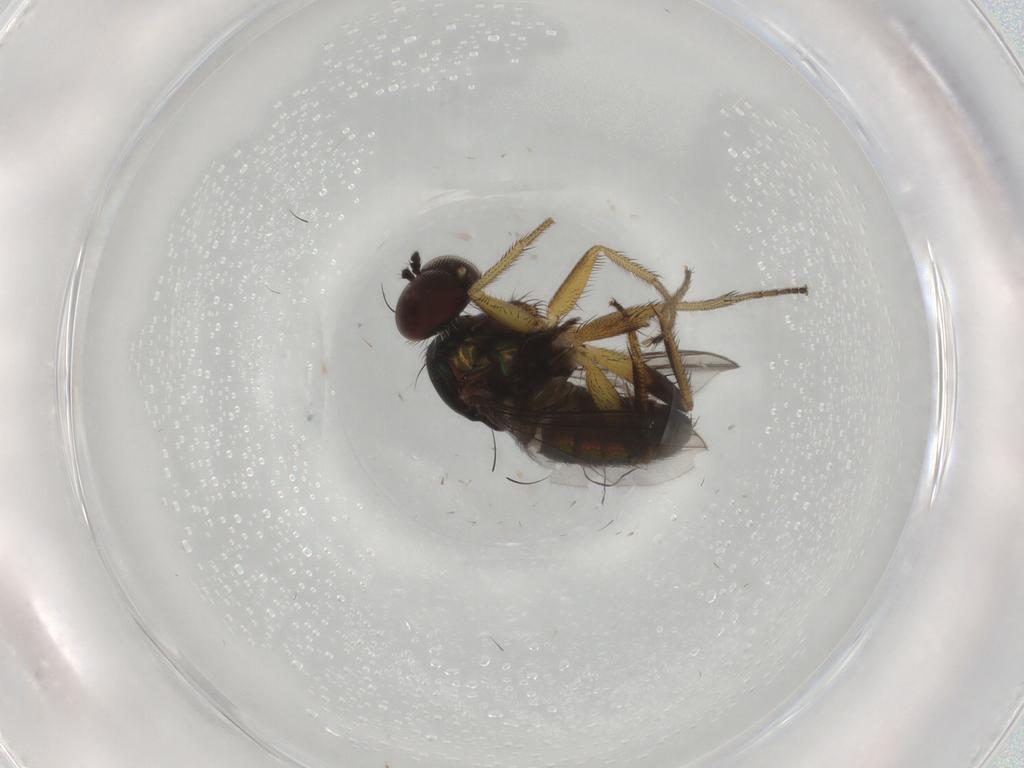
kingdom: Animalia
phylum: Arthropoda
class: Insecta
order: Diptera
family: Dolichopodidae
